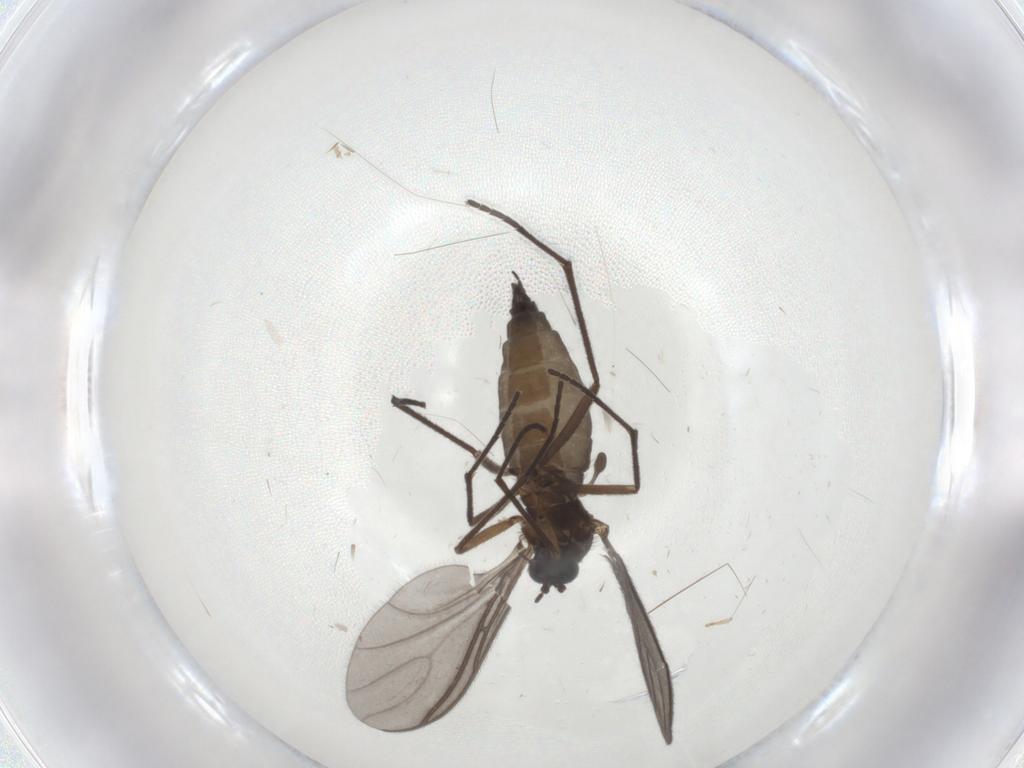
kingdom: Animalia
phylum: Arthropoda
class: Insecta
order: Diptera
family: Sciaridae
